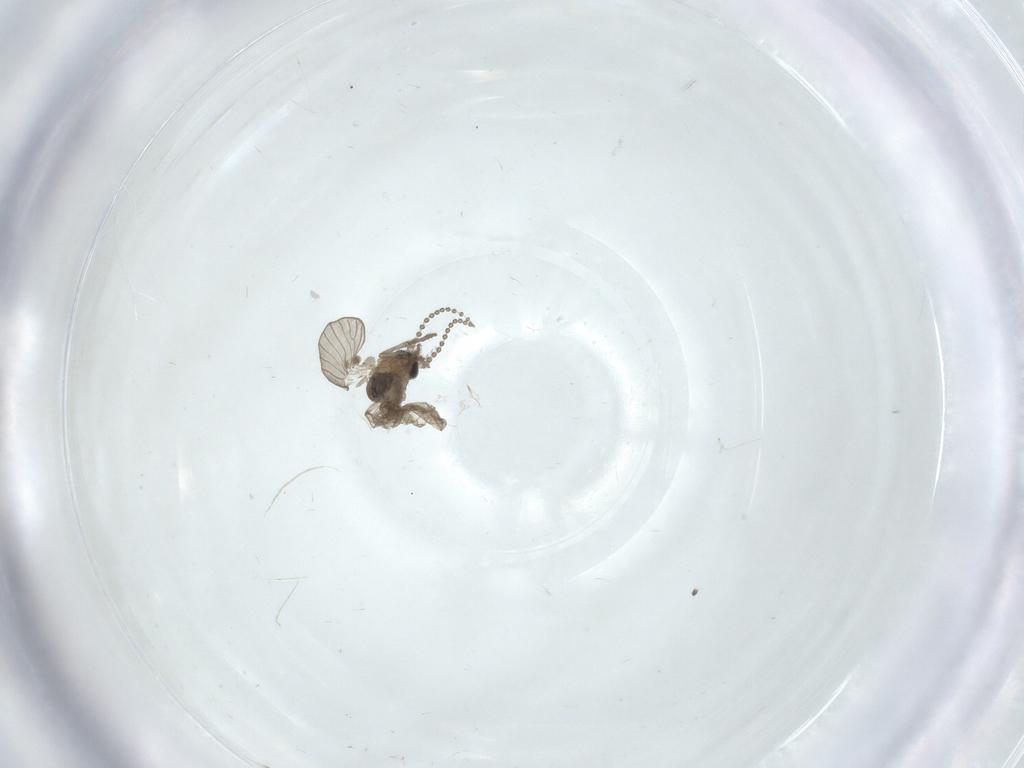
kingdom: Animalia
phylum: Arthropoda
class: Insecta
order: Diptera
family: Psychodidae
